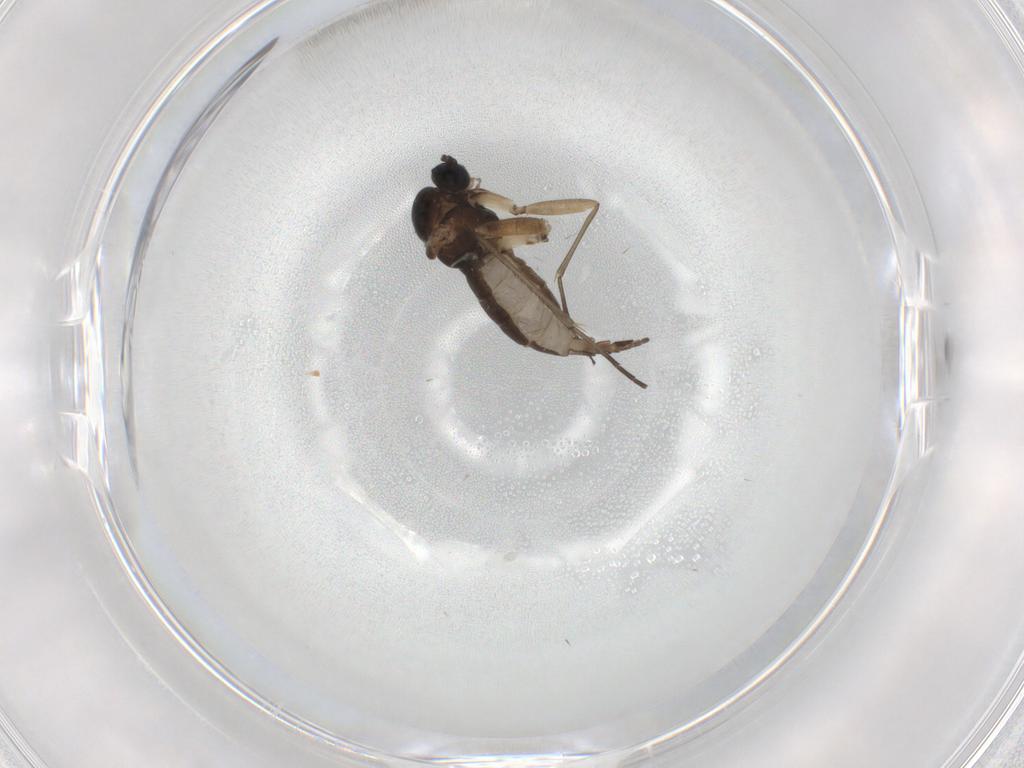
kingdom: Animalia
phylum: Arthropoda
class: Insecta
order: Diptera
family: Sciaridae
